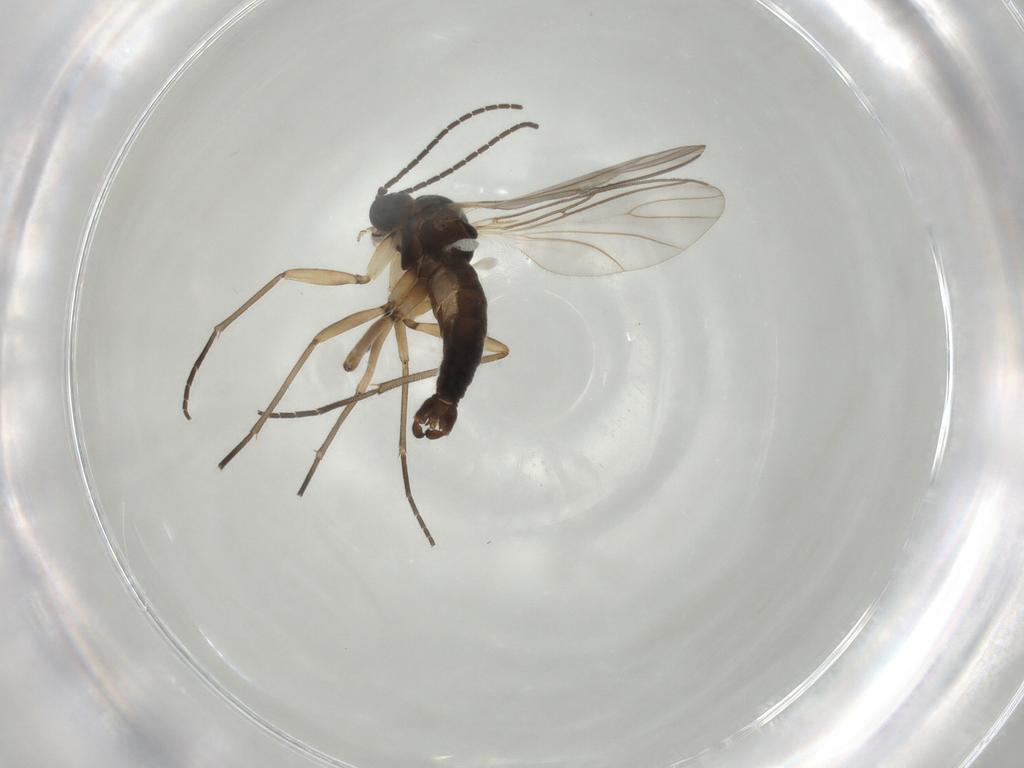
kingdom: Animalia
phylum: Arthropoda
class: Insecta
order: Diptera
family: Sciaridae
